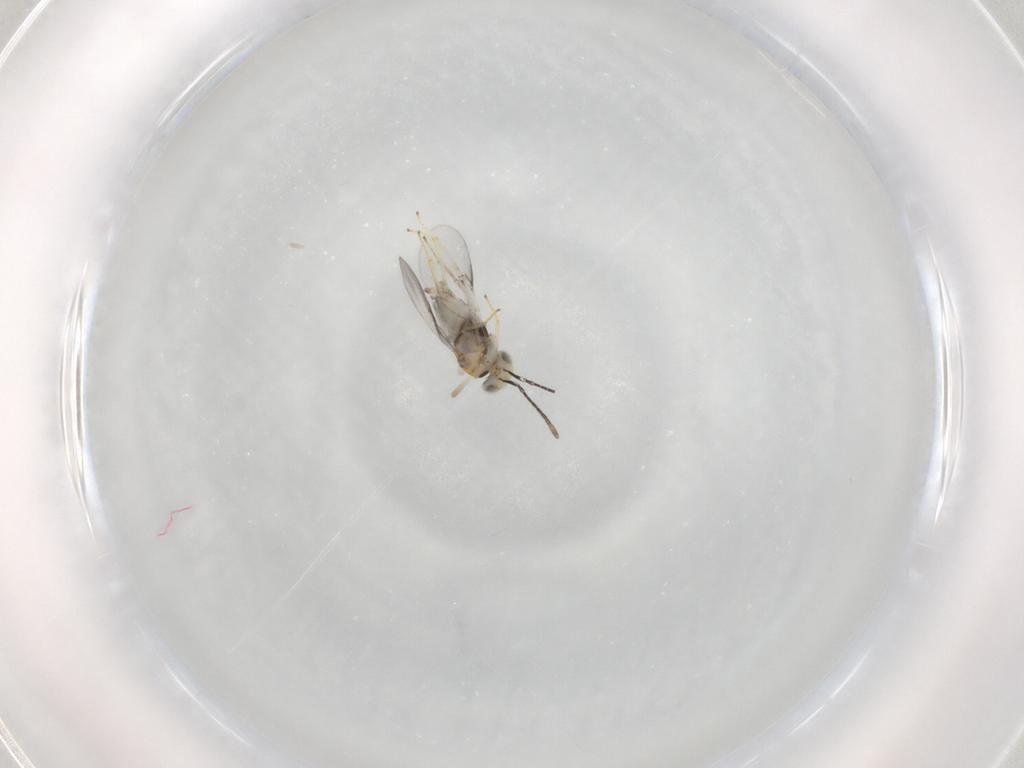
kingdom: Animalia
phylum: Arthropoda
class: Insecta
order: Hymenoptera
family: Encyrtidae
